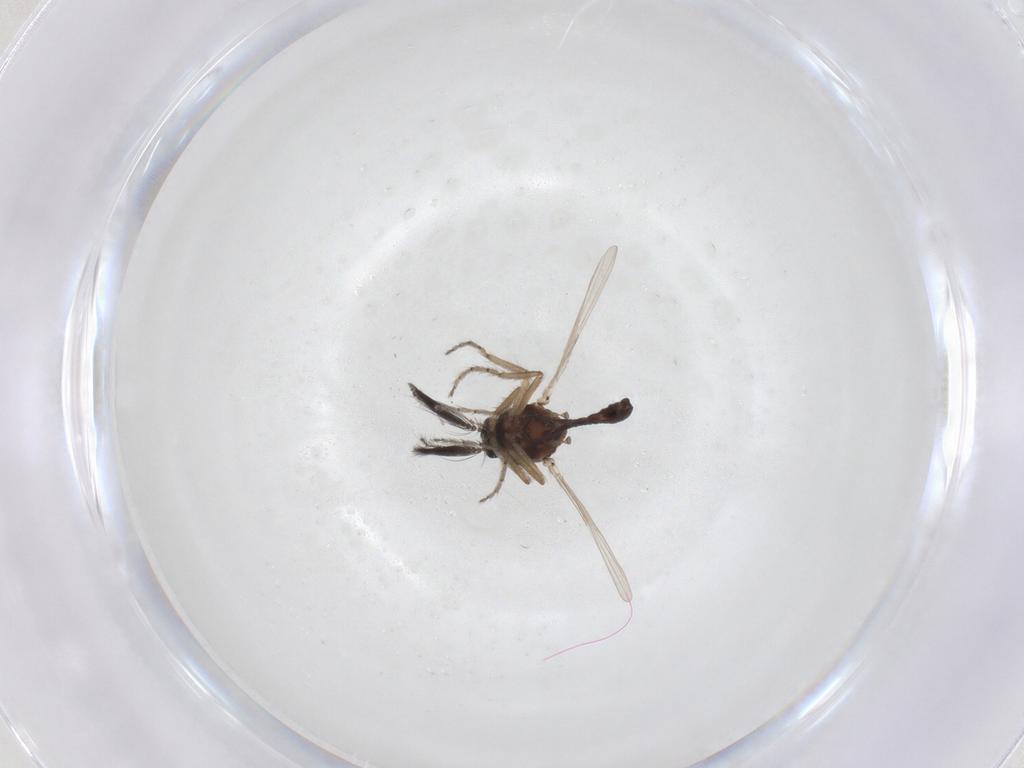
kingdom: Animalia
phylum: Arthropoda
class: Insecta
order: Diptera
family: Ceratopogonidae
